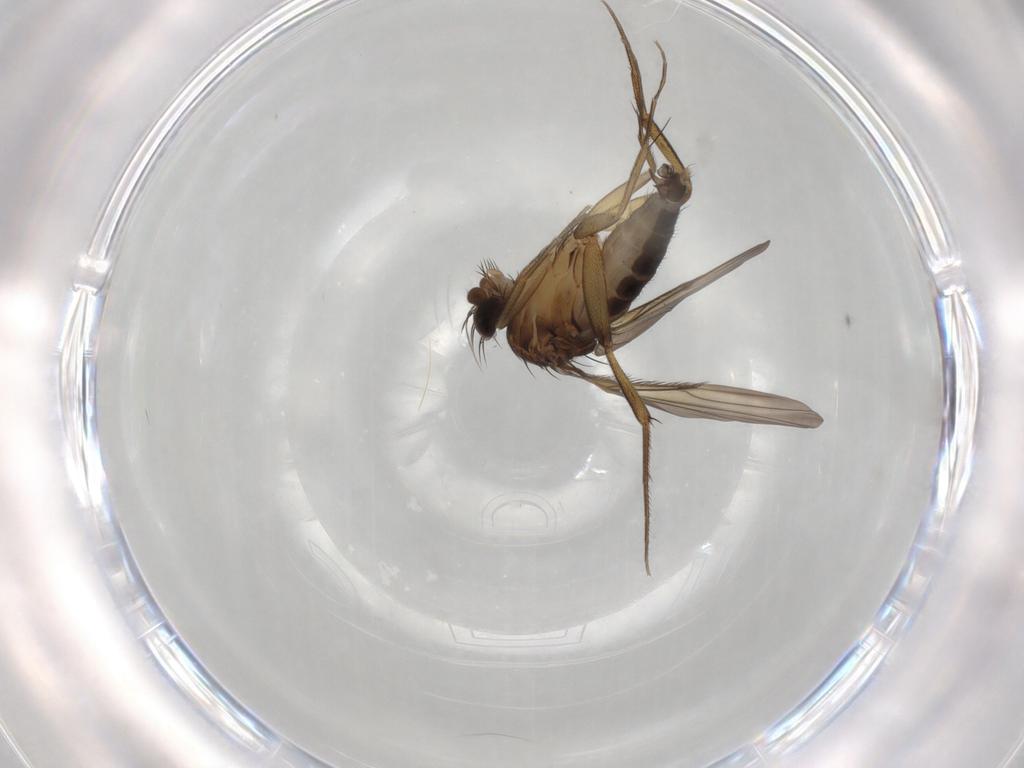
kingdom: Animalia
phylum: Arthropoda
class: Insecta
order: Diptera
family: Phoridae
